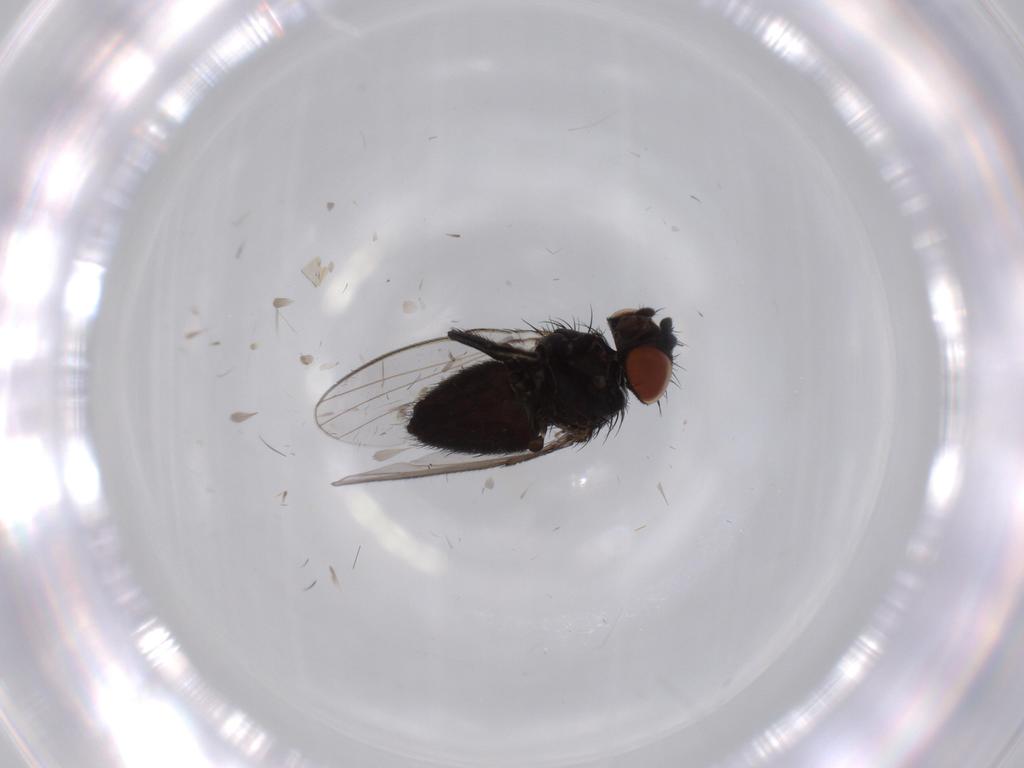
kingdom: Animalia
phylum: Arthropoda
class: Insecta
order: Diptera
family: Milichiidae
